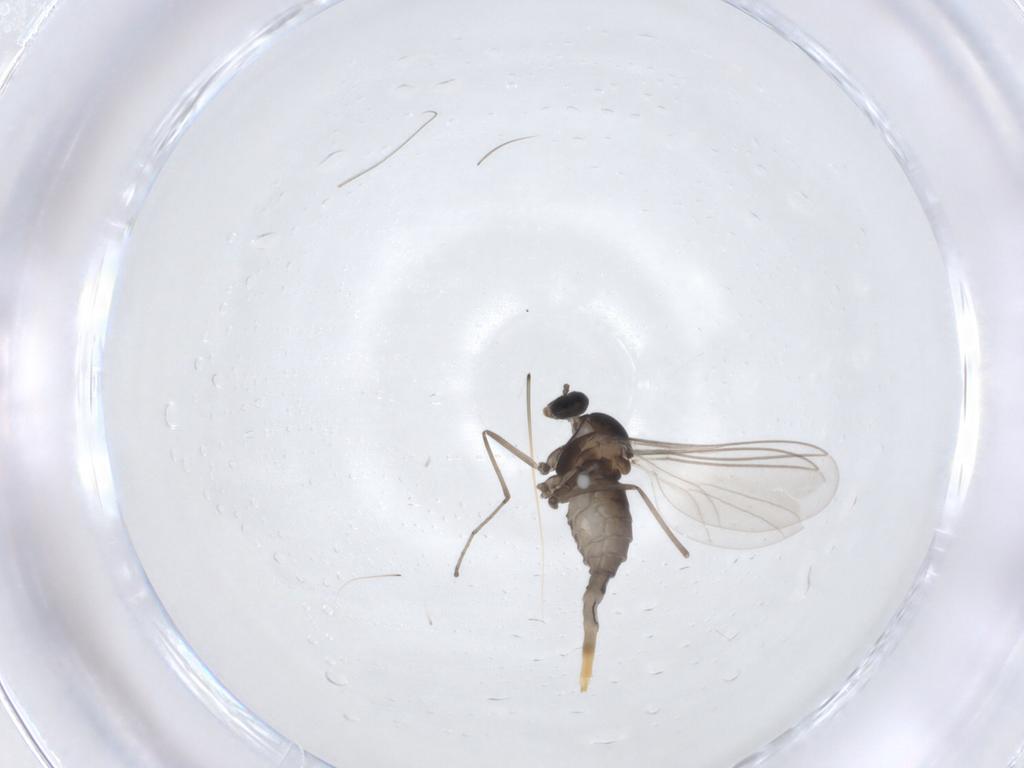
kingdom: Animalia
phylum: Arthropoda
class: Insecta
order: Diptera
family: Cecidomyiidae
